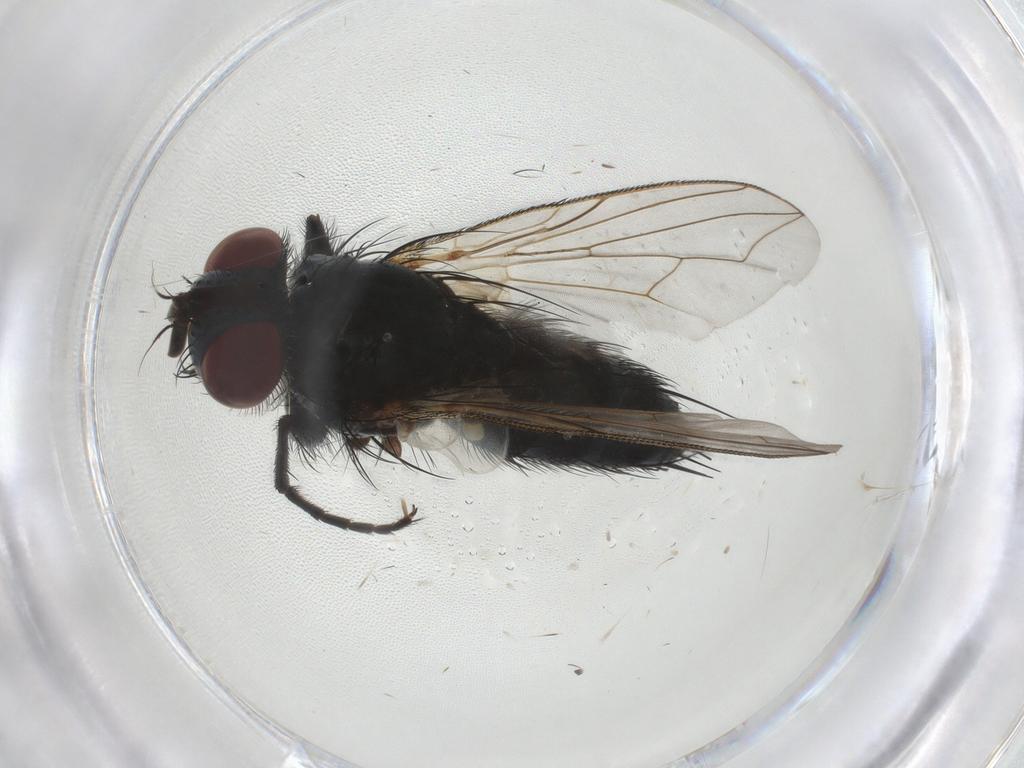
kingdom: Animalia
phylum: Arthropoda
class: Insecta
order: Diptera
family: Tachinidae
